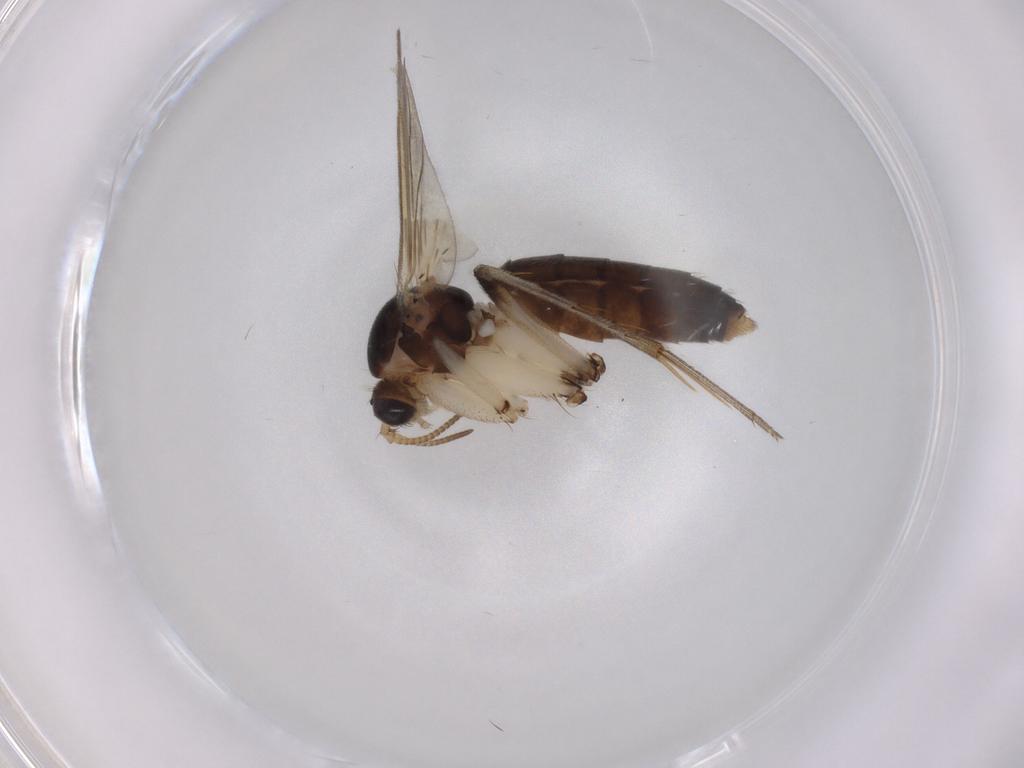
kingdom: Animalia
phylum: Arthropoda
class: Insecta
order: Diptera
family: Mycetophilidae
